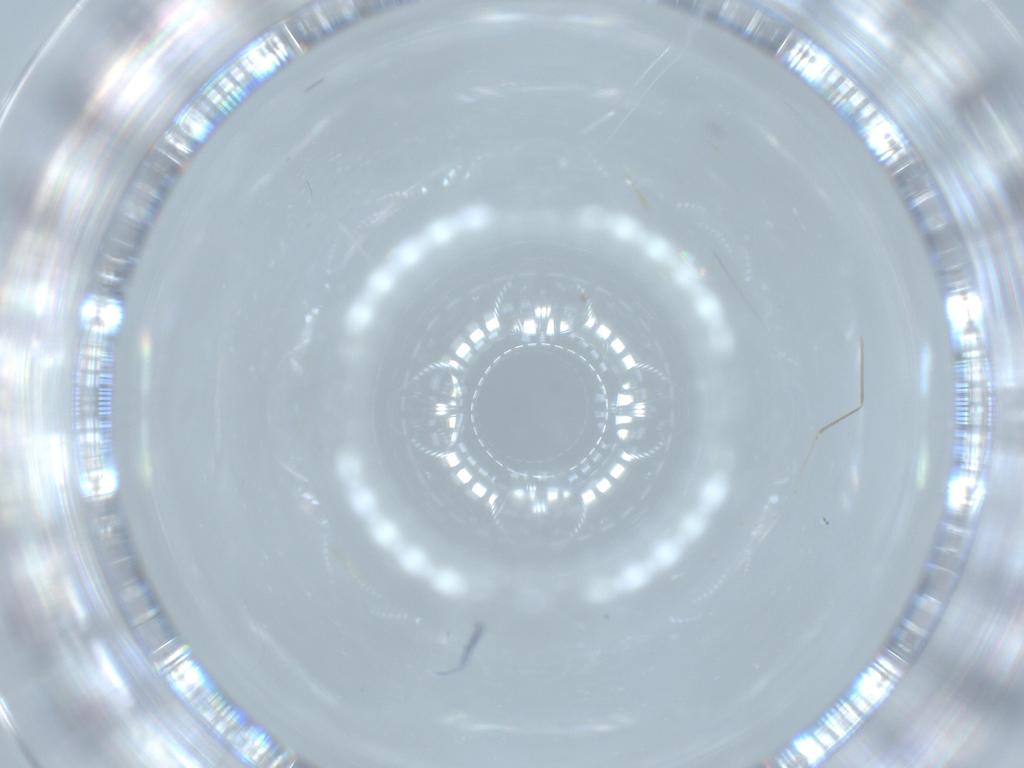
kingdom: Animalia
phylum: Arthropoda
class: Insecta
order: Diptera
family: Cecidomyiidae
